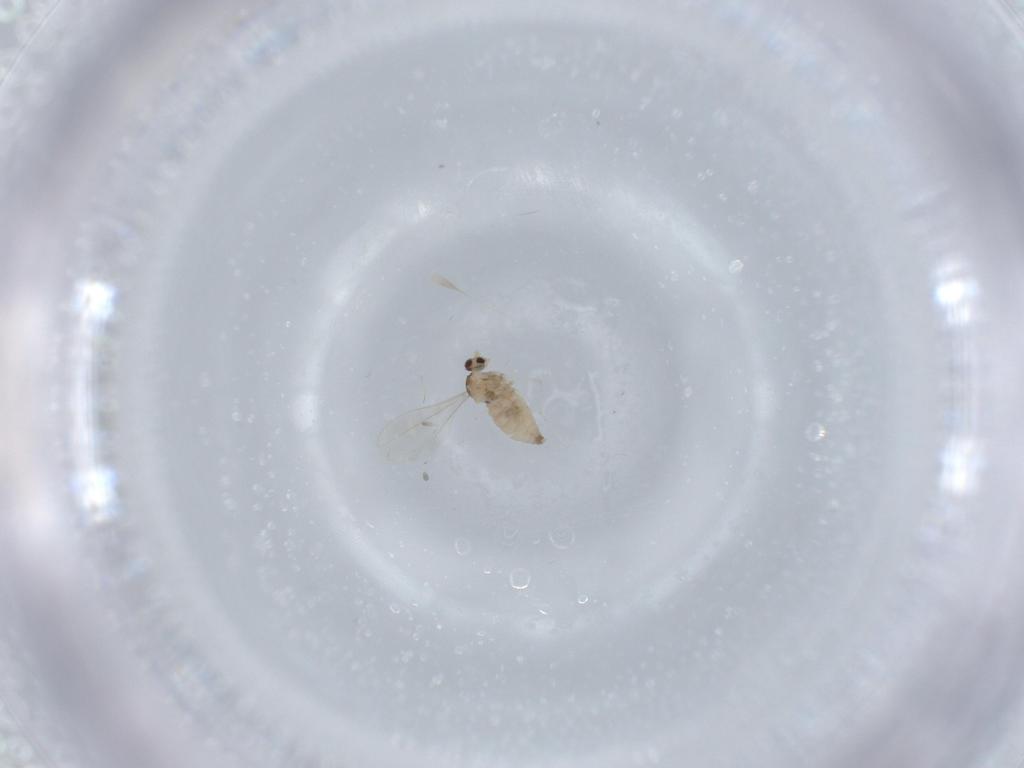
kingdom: Animalia
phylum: Arthropoda
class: Insecta
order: Diptera
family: Cecidomyiidae
